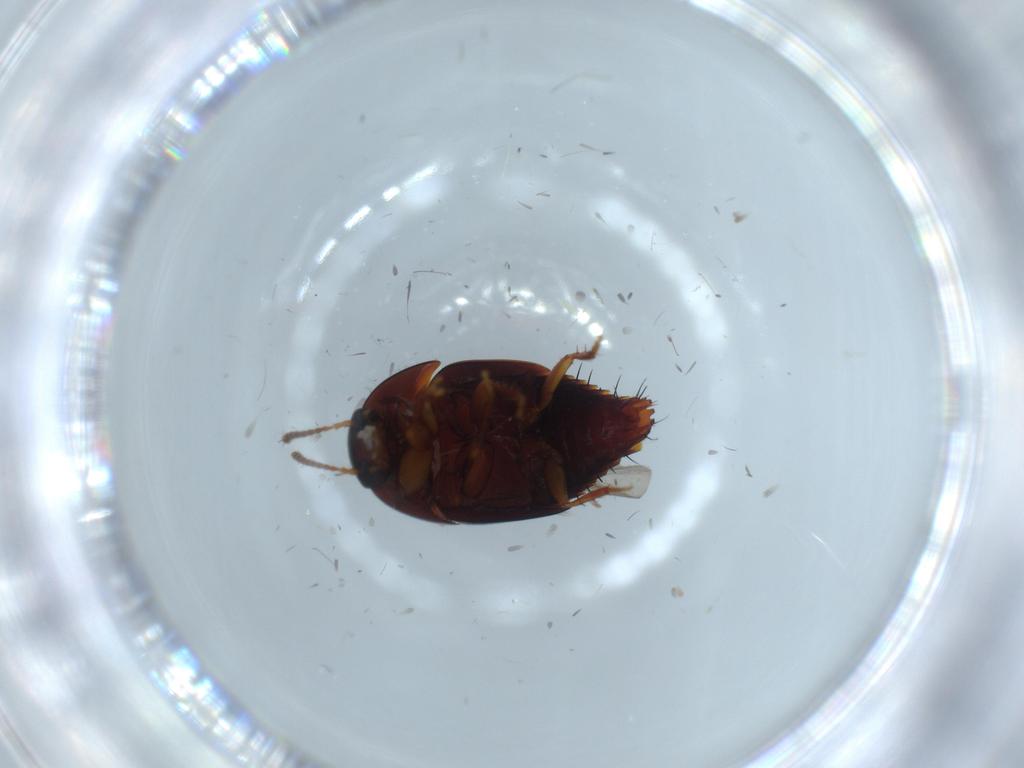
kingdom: Animalia
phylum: Arthropoda
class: Insecta
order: Coleoptera
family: Staphylinidae
